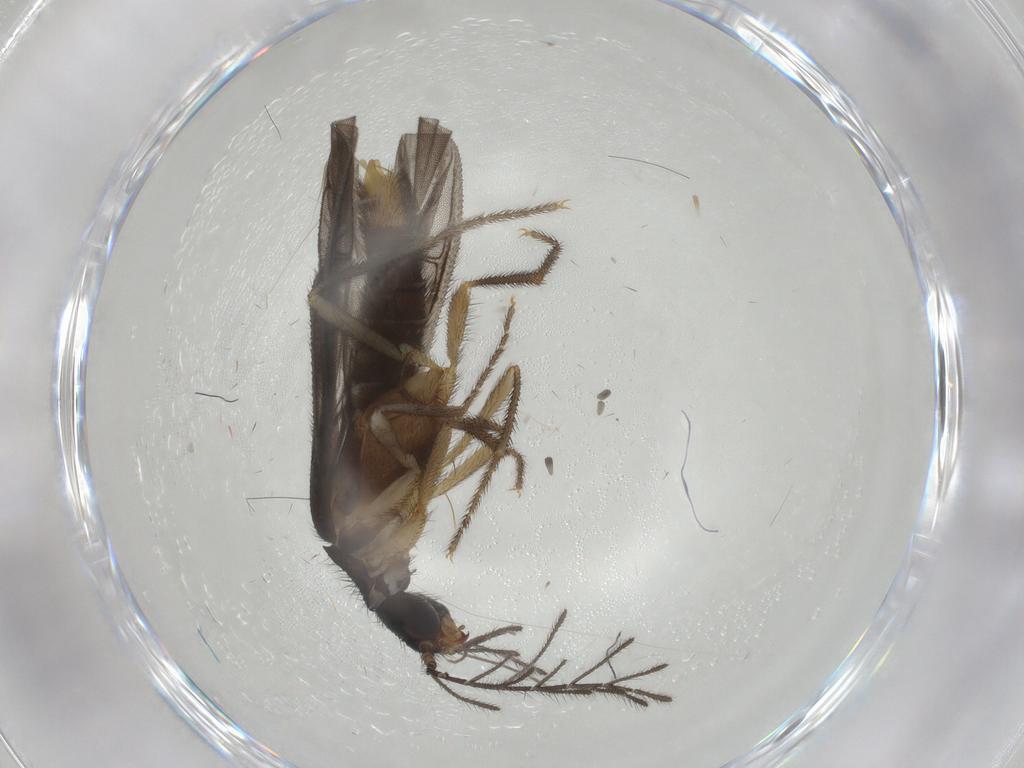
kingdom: Animalia
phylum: Arthropoda
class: Insecta
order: Coleoptera
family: Ptilodactylidae
